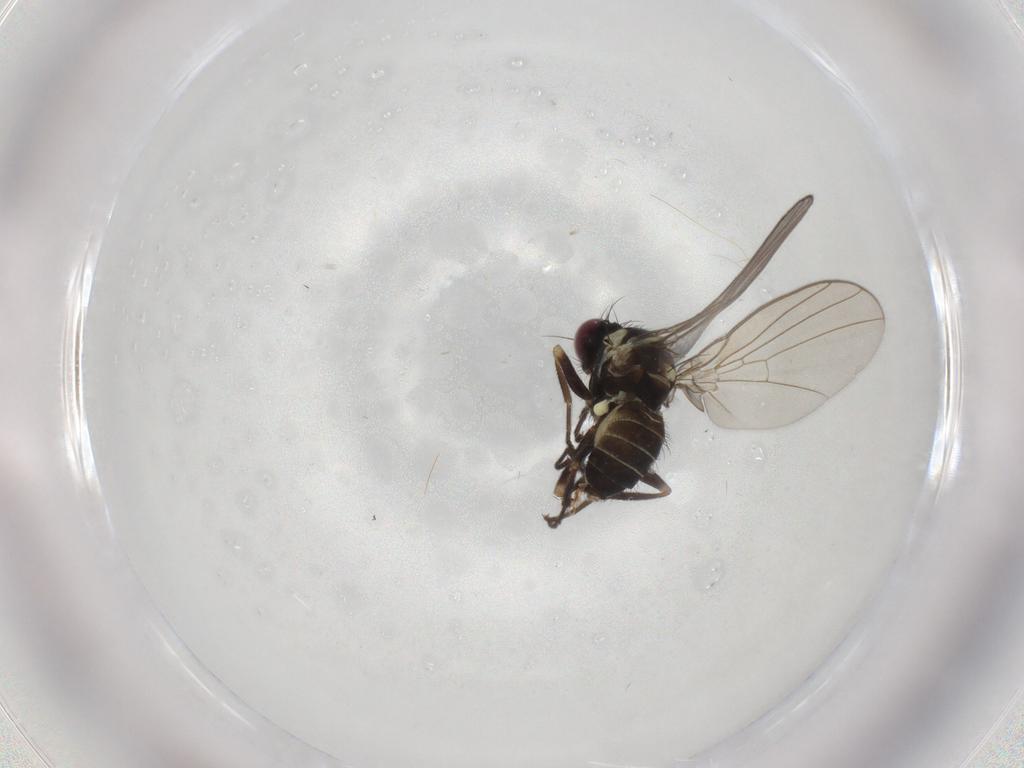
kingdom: Animalia
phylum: Arthropoda
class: Insecta
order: Diptera
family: Agromyzidae
